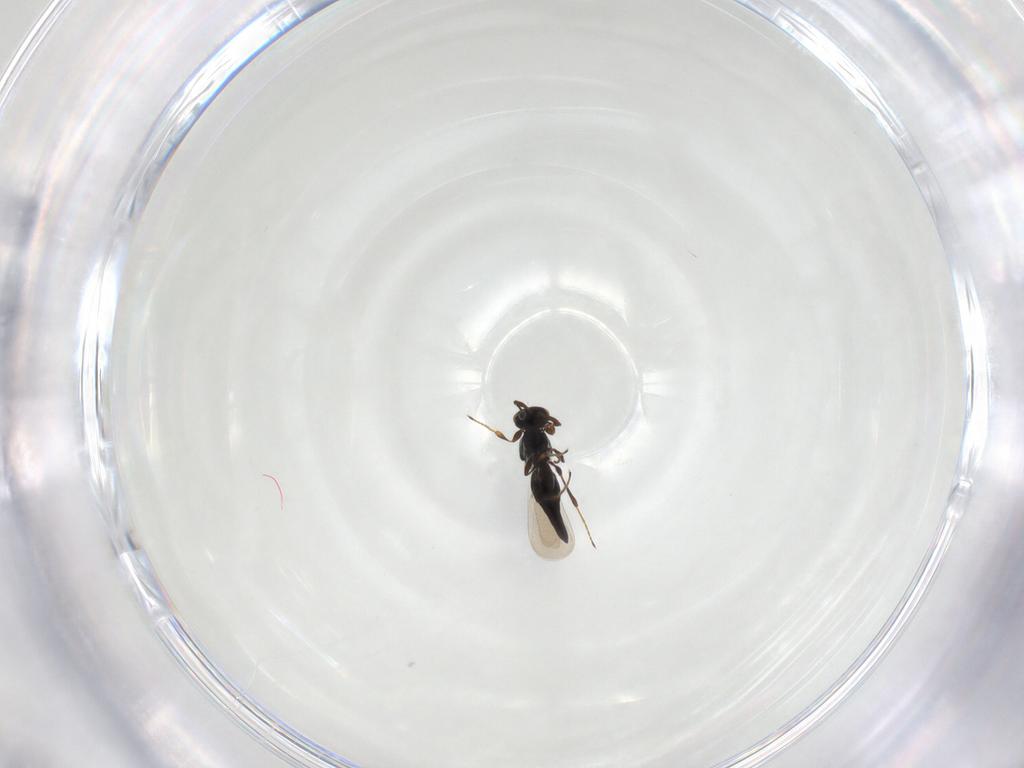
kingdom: Animalia
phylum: Arthropoda
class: Insecta
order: Hymenoptera
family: Platygastridae
